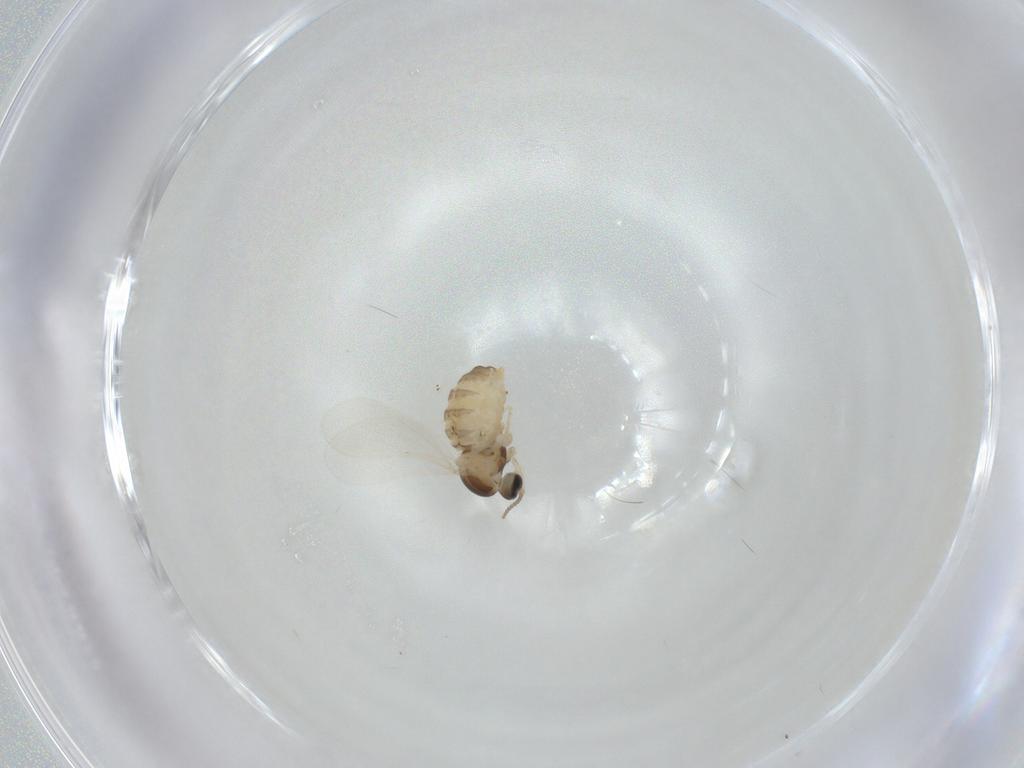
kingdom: Animalia
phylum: Arthropoda
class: Insecta
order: Diptera
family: Cecidomyiidae
